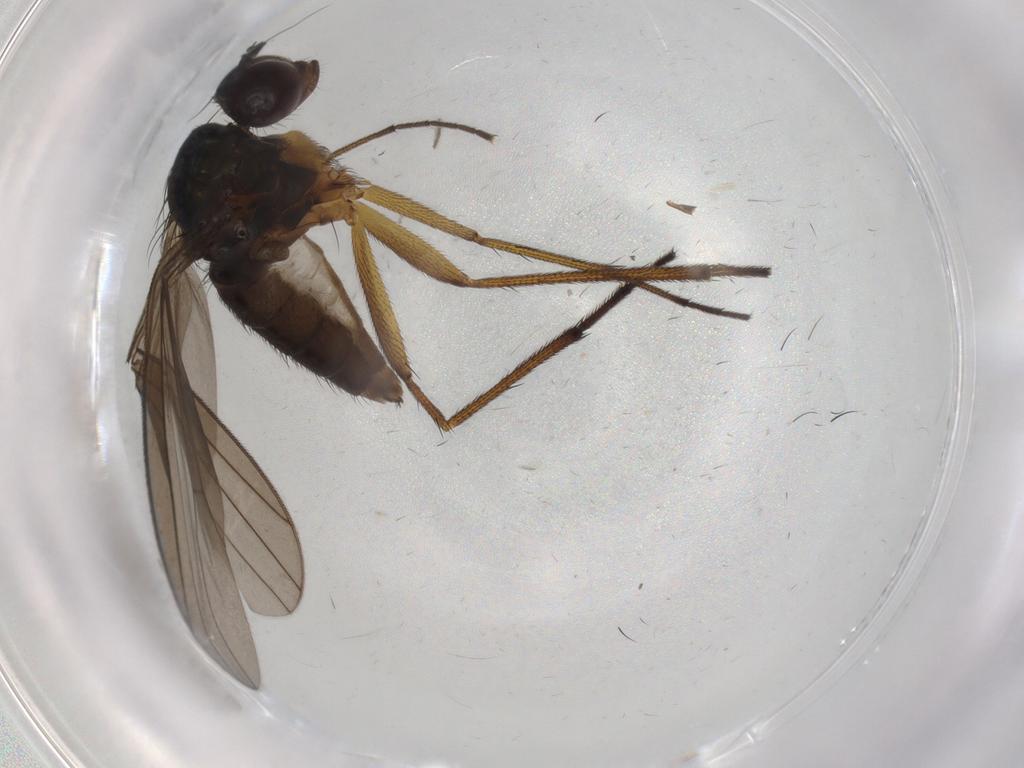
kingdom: Animalia
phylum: Arthropoda
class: Insecta
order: Diptera
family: Dolichopodidae
